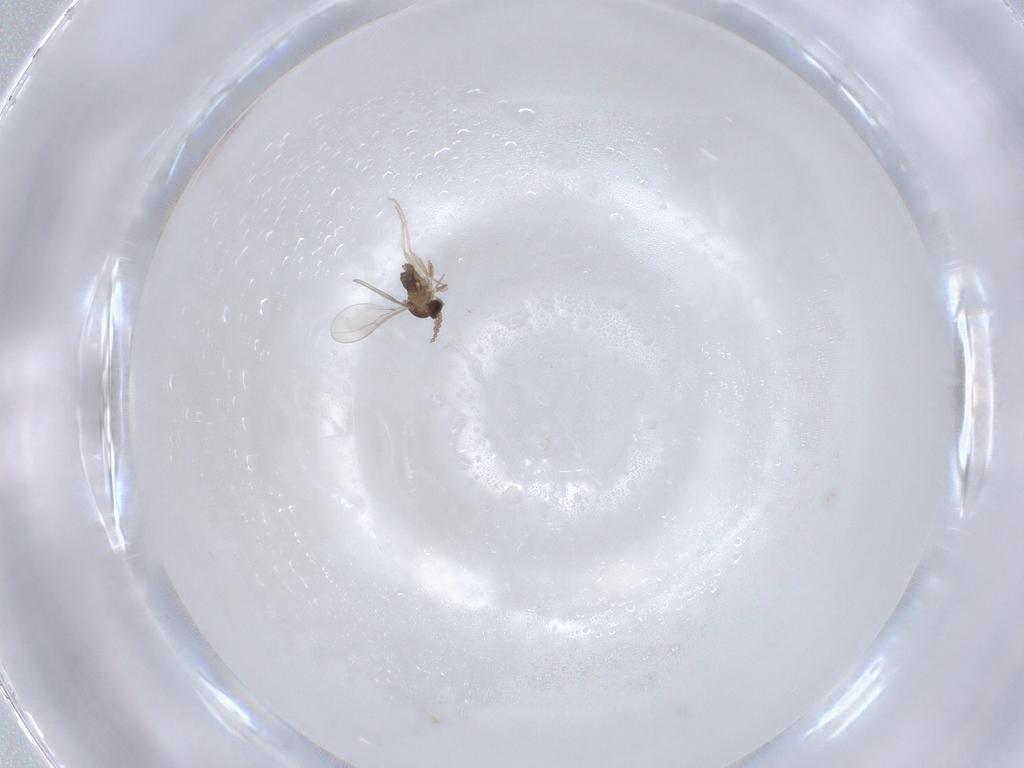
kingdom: Animalia
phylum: Arthropoda
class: Insecta
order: Diptera
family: Cecidomyiidae
